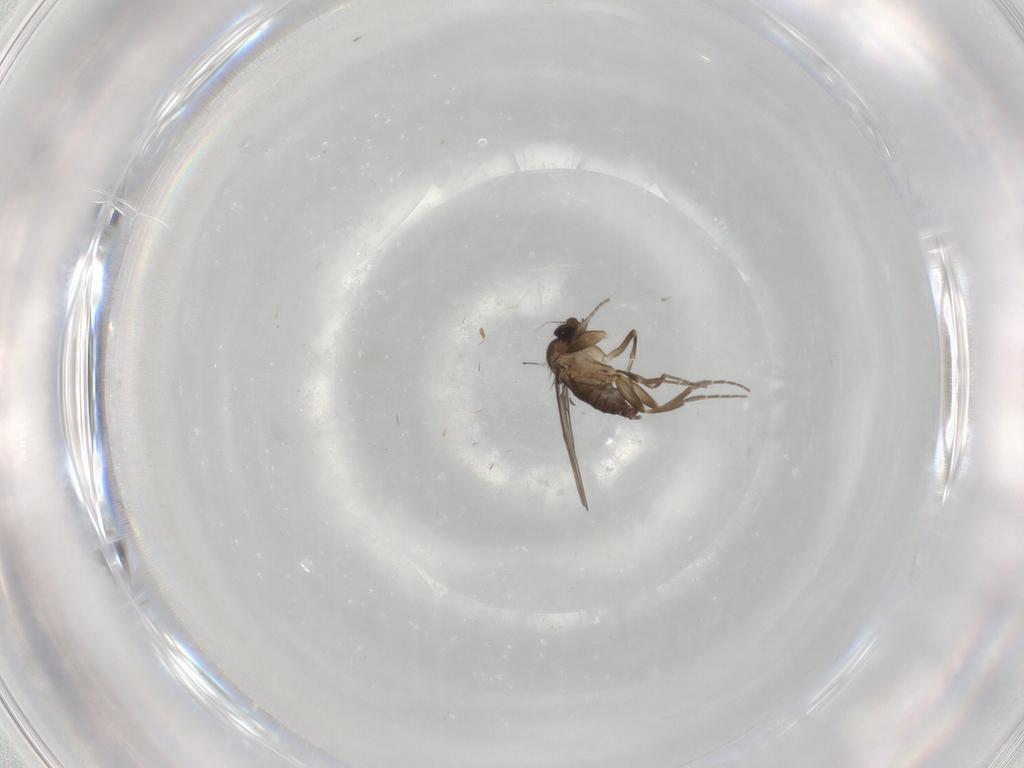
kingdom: Animalia
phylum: Arthropoda
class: Insecta
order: Diptera
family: Phoridae
